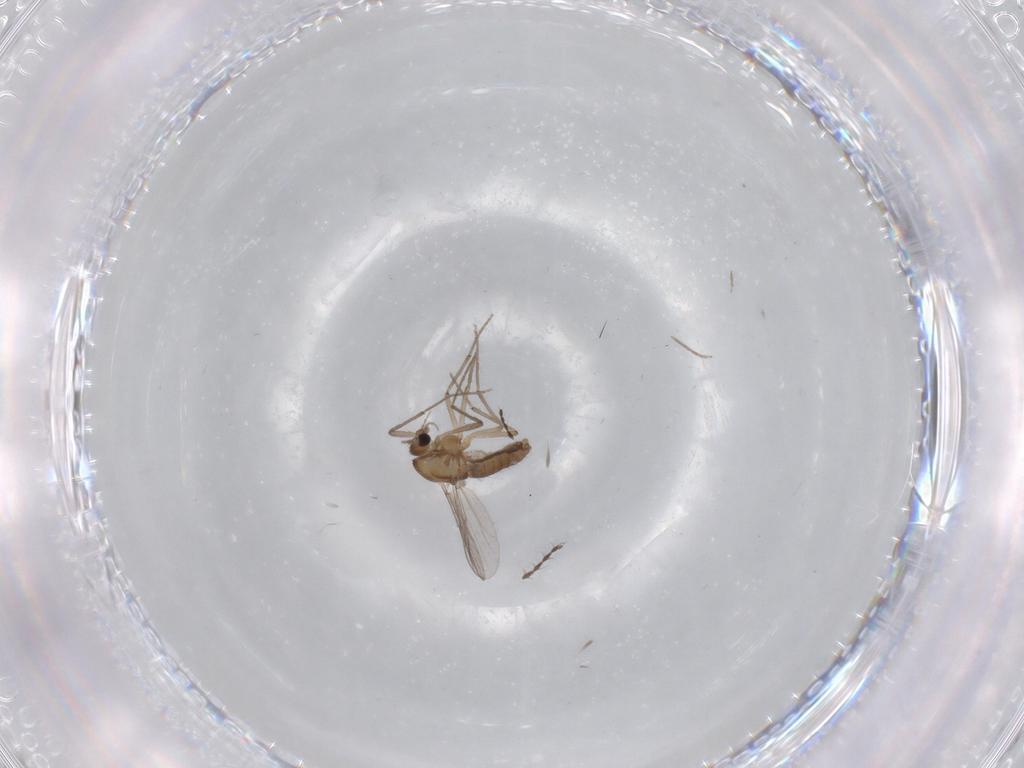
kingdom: Animalia
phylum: Arthropoda
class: Insecta
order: Diptera
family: Chironomidae
